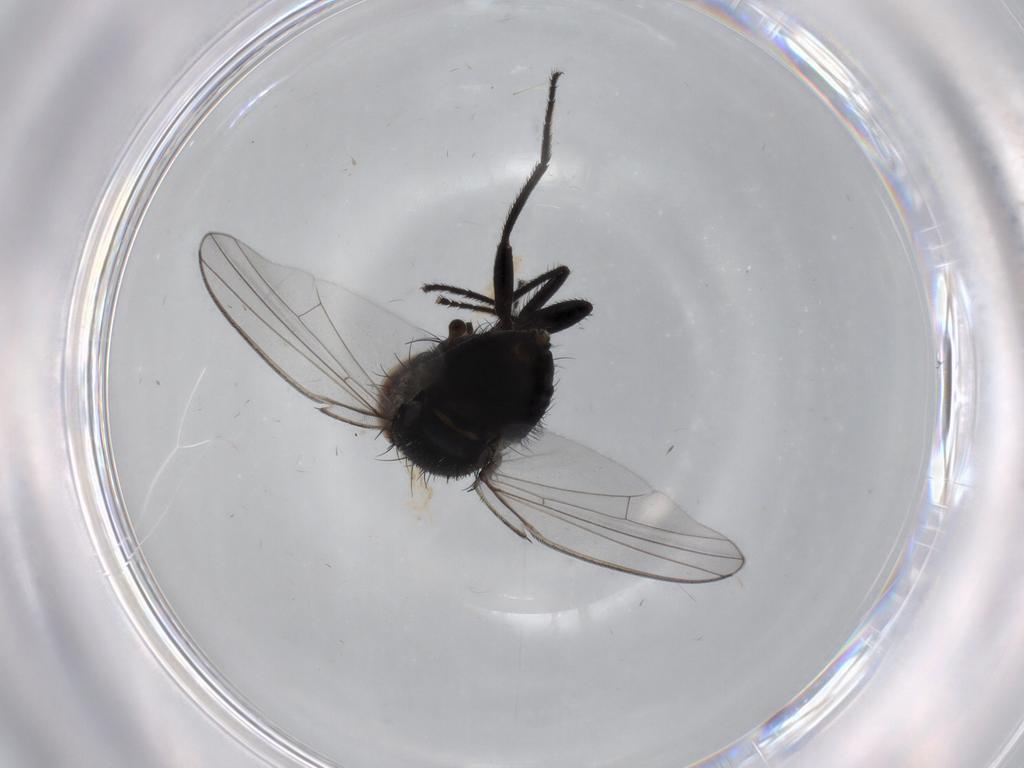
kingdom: Animalia
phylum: Arthropoda
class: Insecta
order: Diptera
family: Milichiidae
